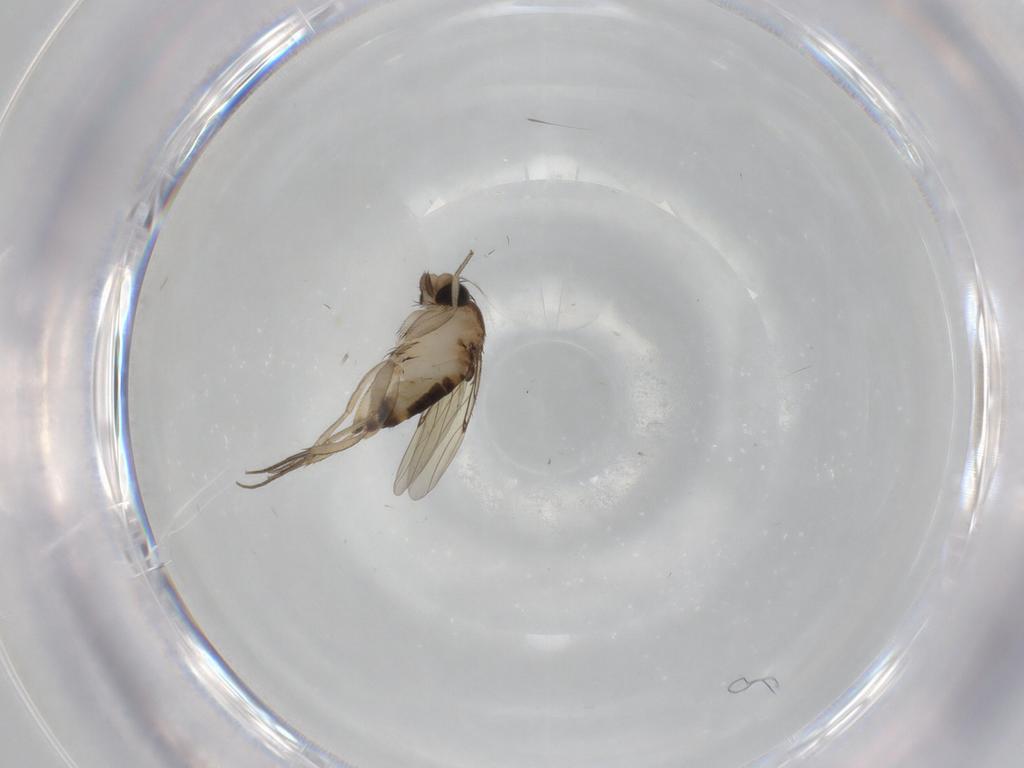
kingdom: Animalia
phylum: Arthropoda
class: Insecta
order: Diptera
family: Phoridae
